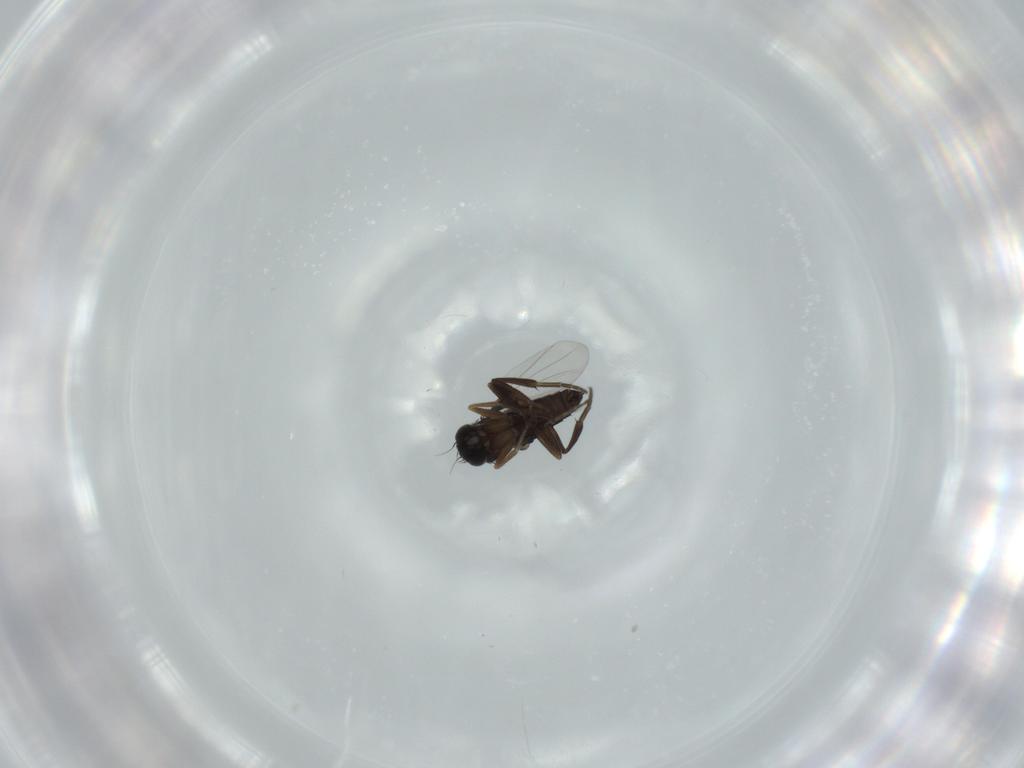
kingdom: Animalia
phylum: Arthropoda
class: Insecta
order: Diptera
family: Phoridae
